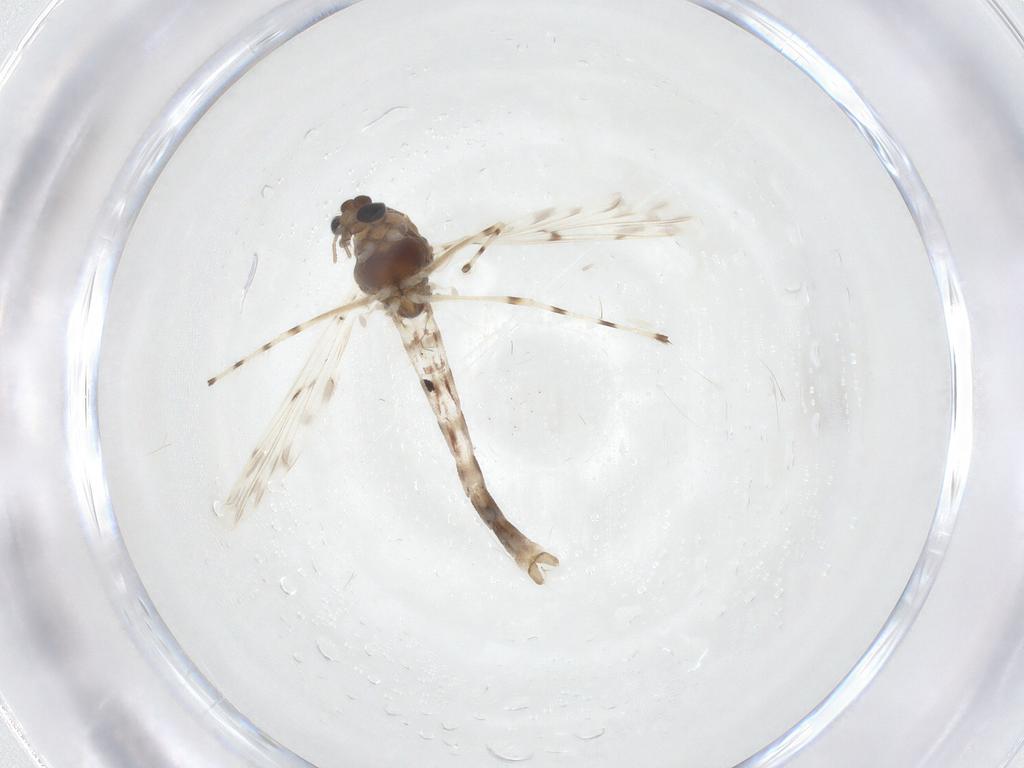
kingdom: Animalia
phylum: Arthropoda
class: Insecta
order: Diptera
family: Chironomidae
